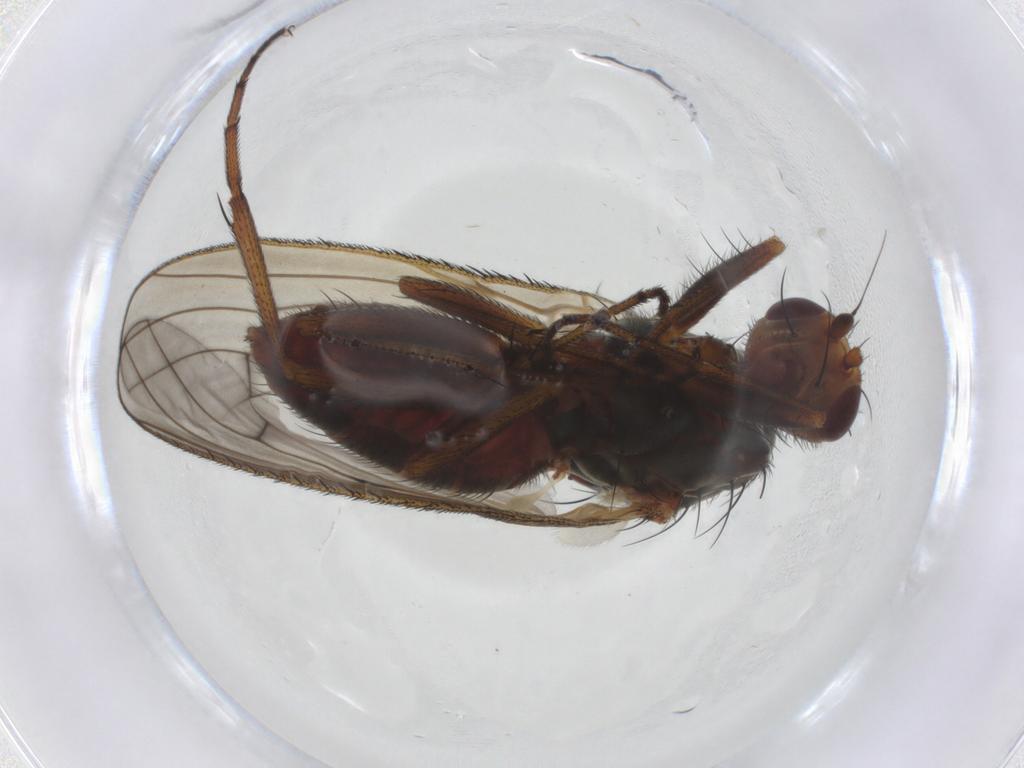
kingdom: Animalia
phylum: Arthropoda
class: Insecta
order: Diptera
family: Heleomyzidae
